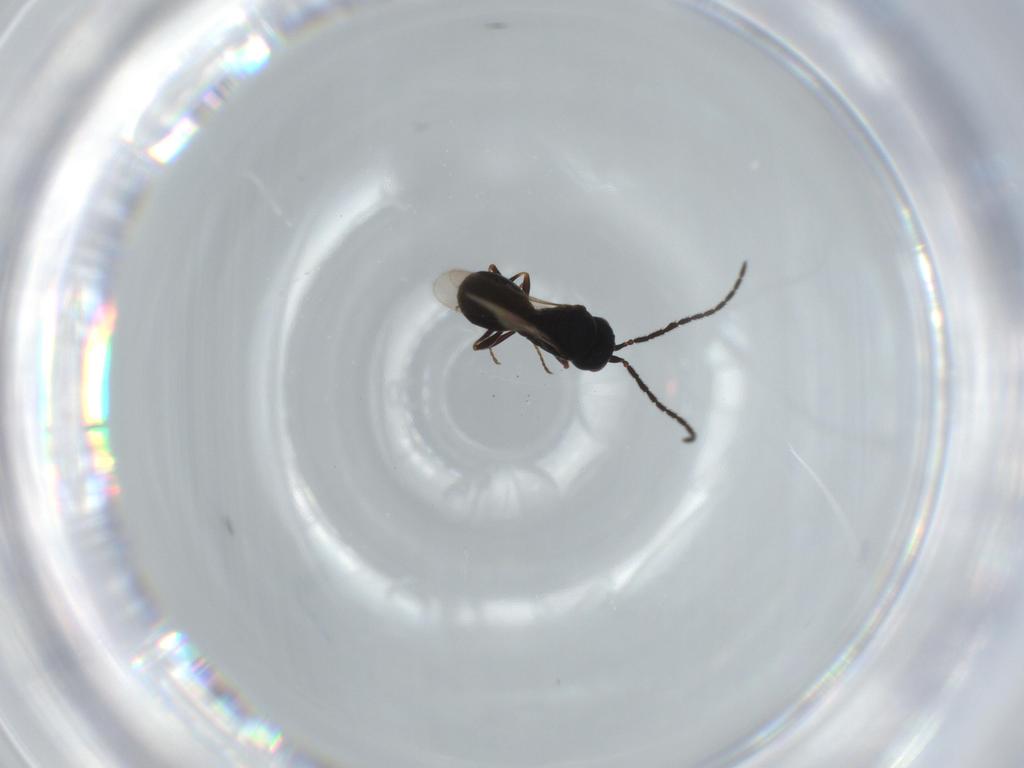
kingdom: Animalia
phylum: Arthropoda
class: Insecta
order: Hymenoptera
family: Scelionidae
